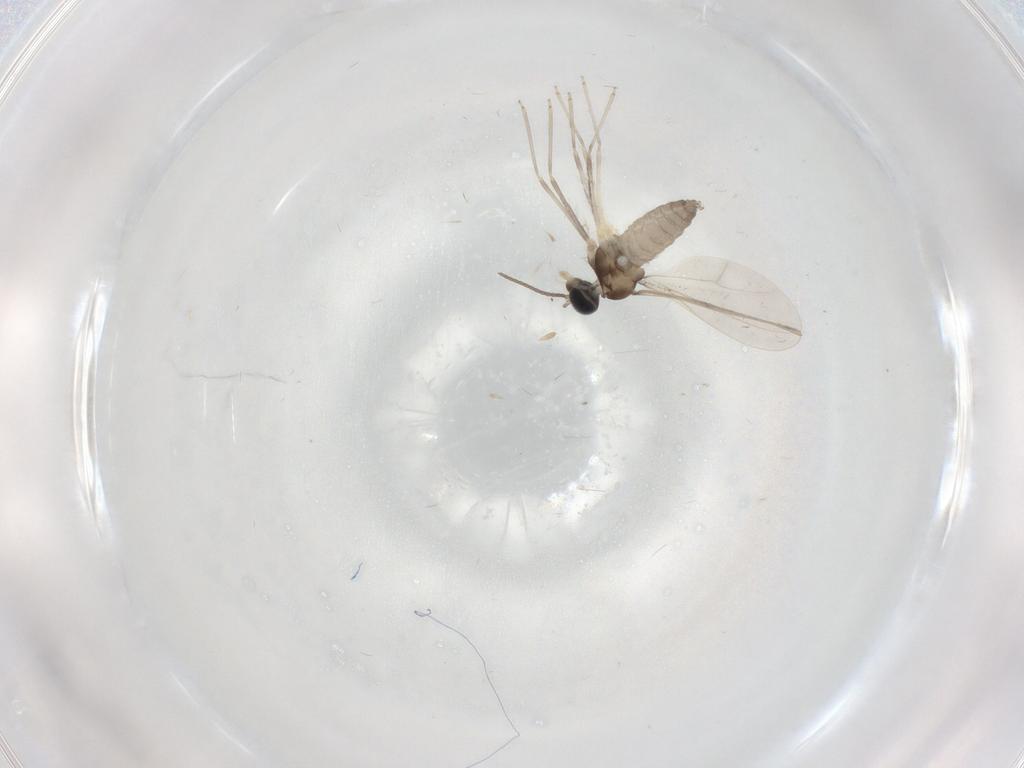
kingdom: Animalia
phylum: Arthropoda
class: Insecta
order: Diptera
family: Cecidomyiidae
